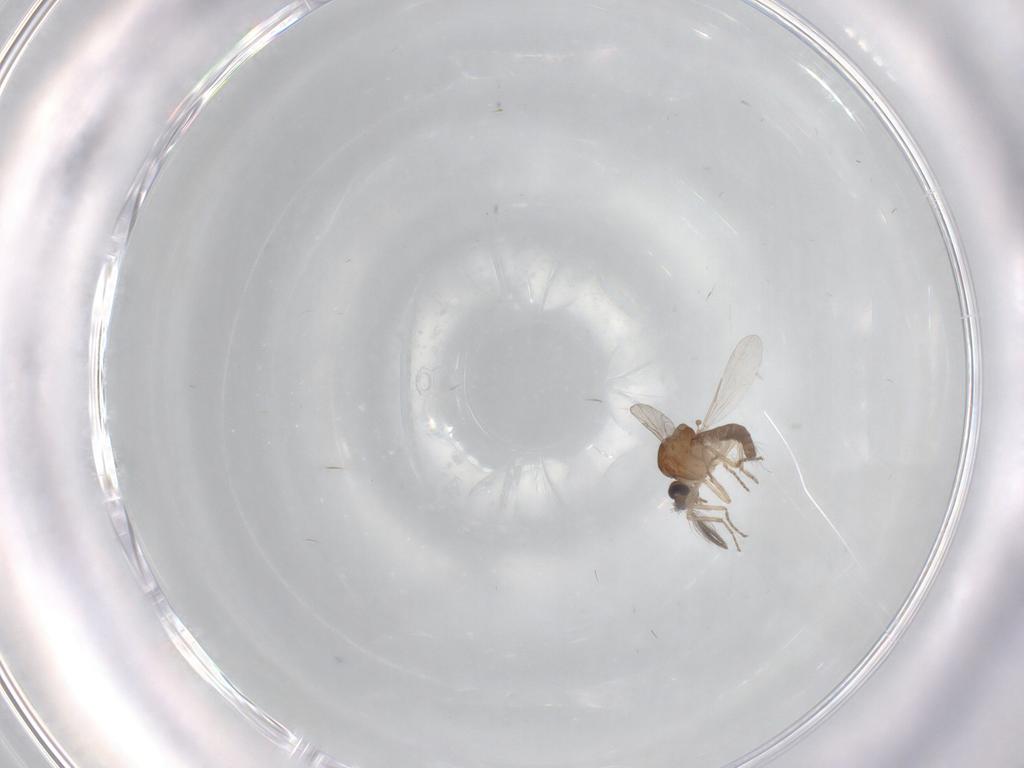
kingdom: Animalia
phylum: Arthropoda
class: Insecta
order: Diptera
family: Ceratopogonidae
